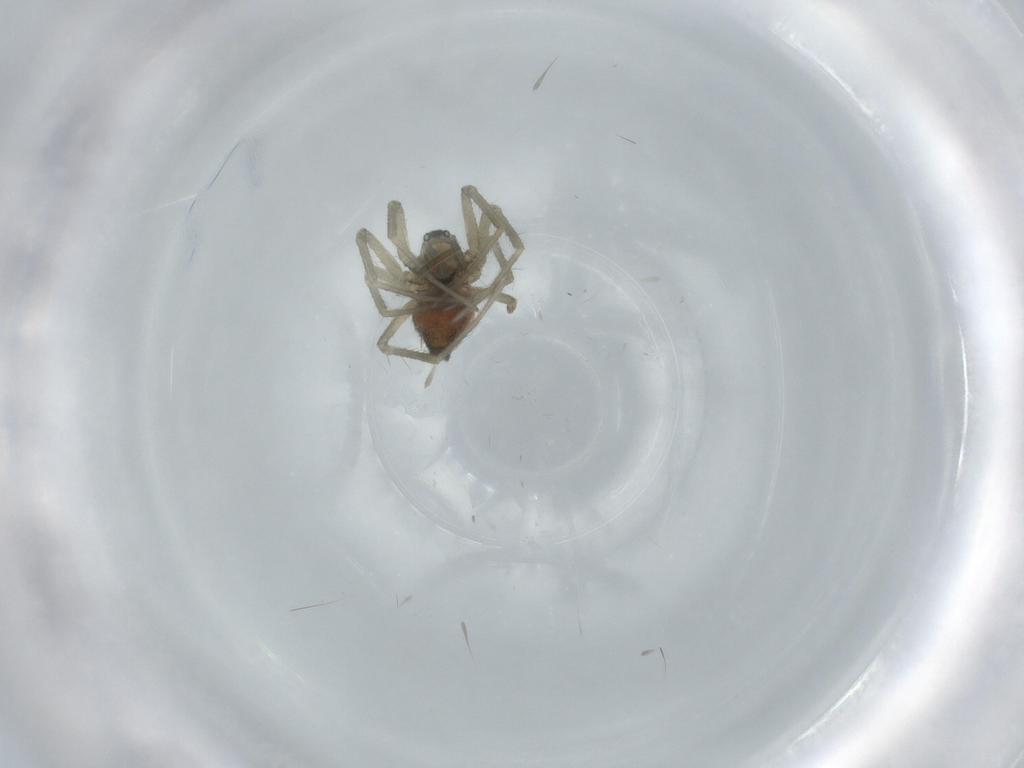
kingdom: Animalia
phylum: Arthropoda
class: Arachnida
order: Araneae
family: Linyphiidae
